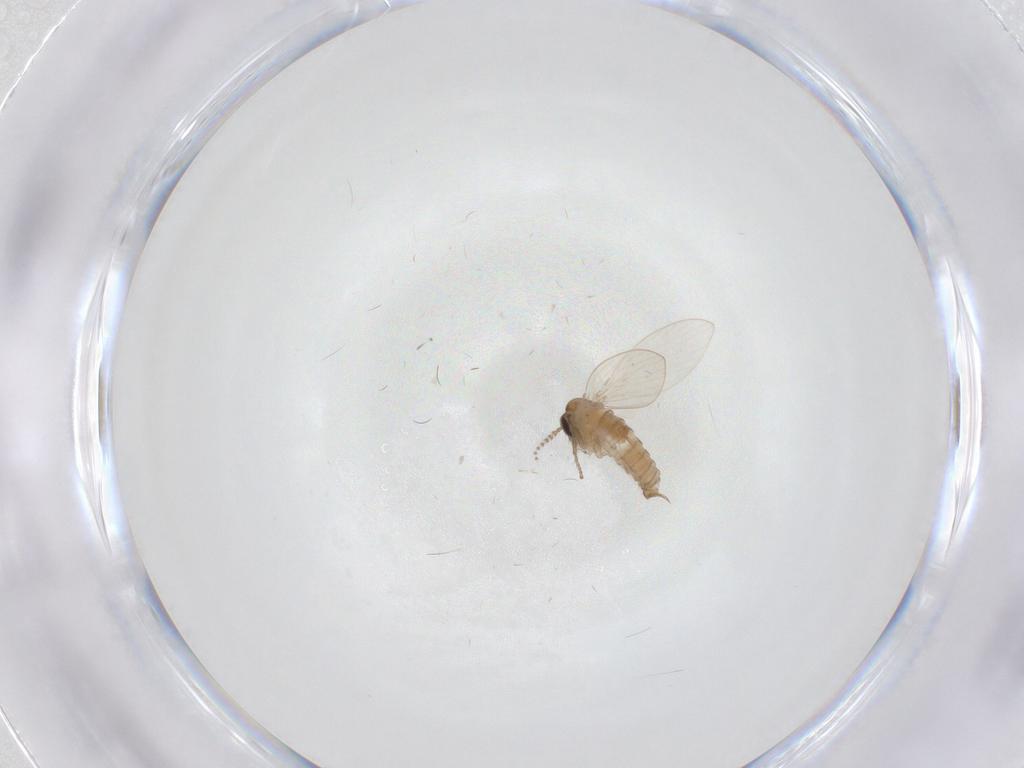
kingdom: Animalia
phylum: Arthropoda
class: Insecta
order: Diptera
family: Psychodidae
